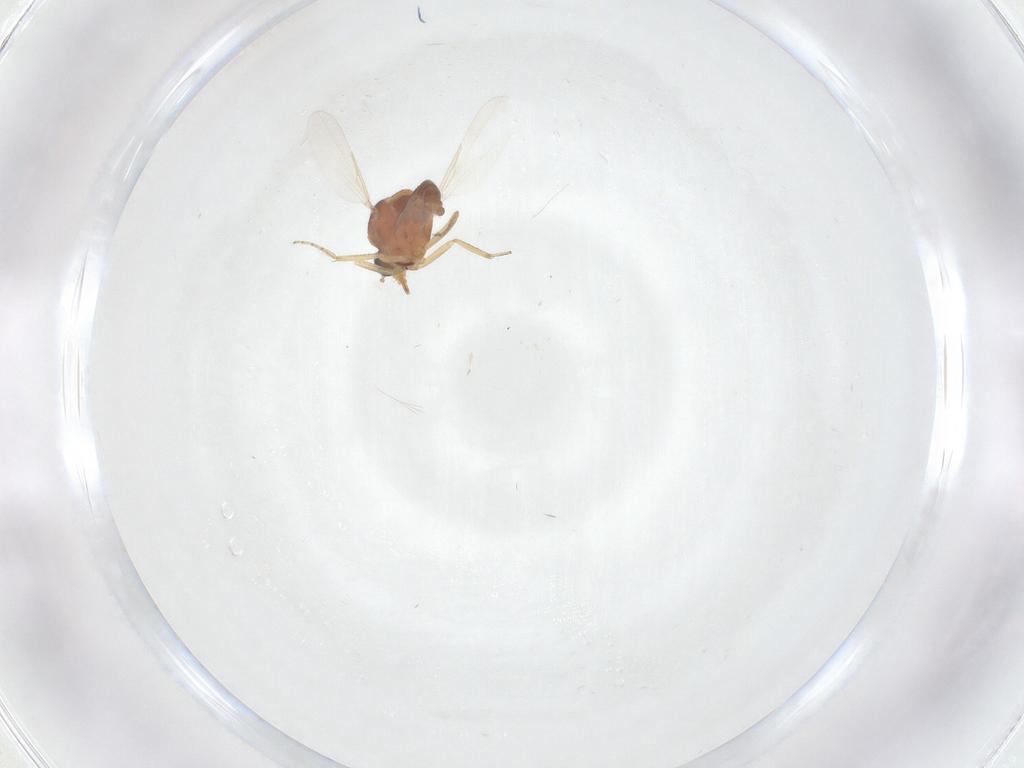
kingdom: Animalia
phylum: Arthropoda
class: Insecta
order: Diptera
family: Ceratopogonidae
